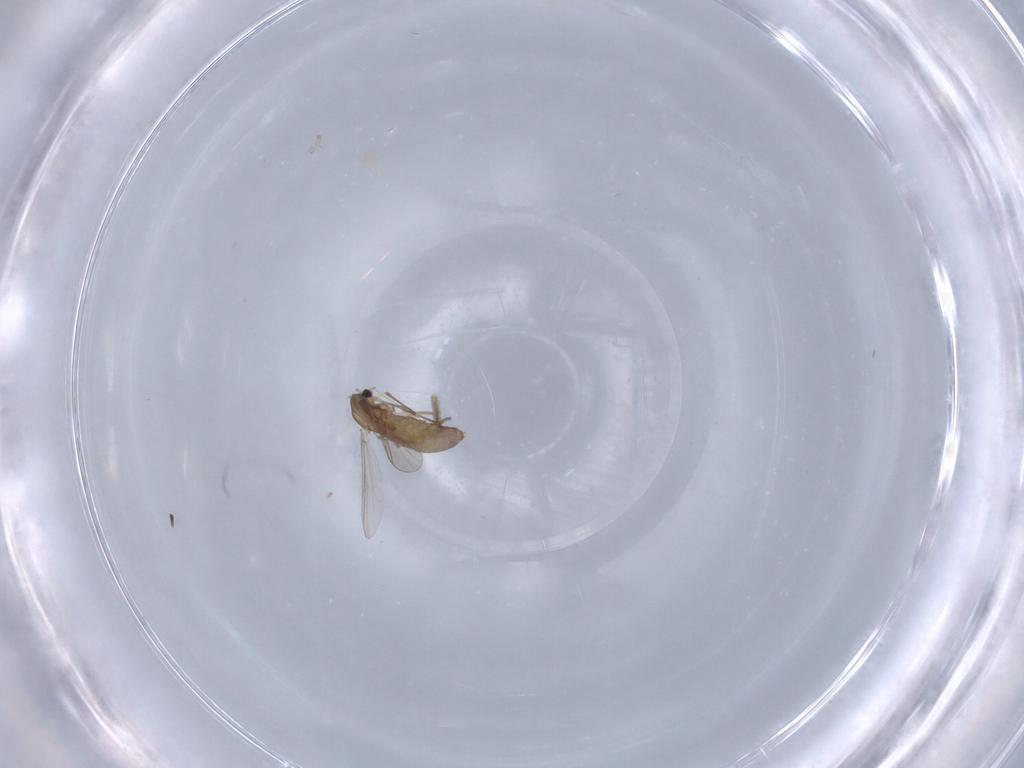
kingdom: Animalia
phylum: Arthropoda
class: Insecta
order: Diptera
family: Chironomidae
